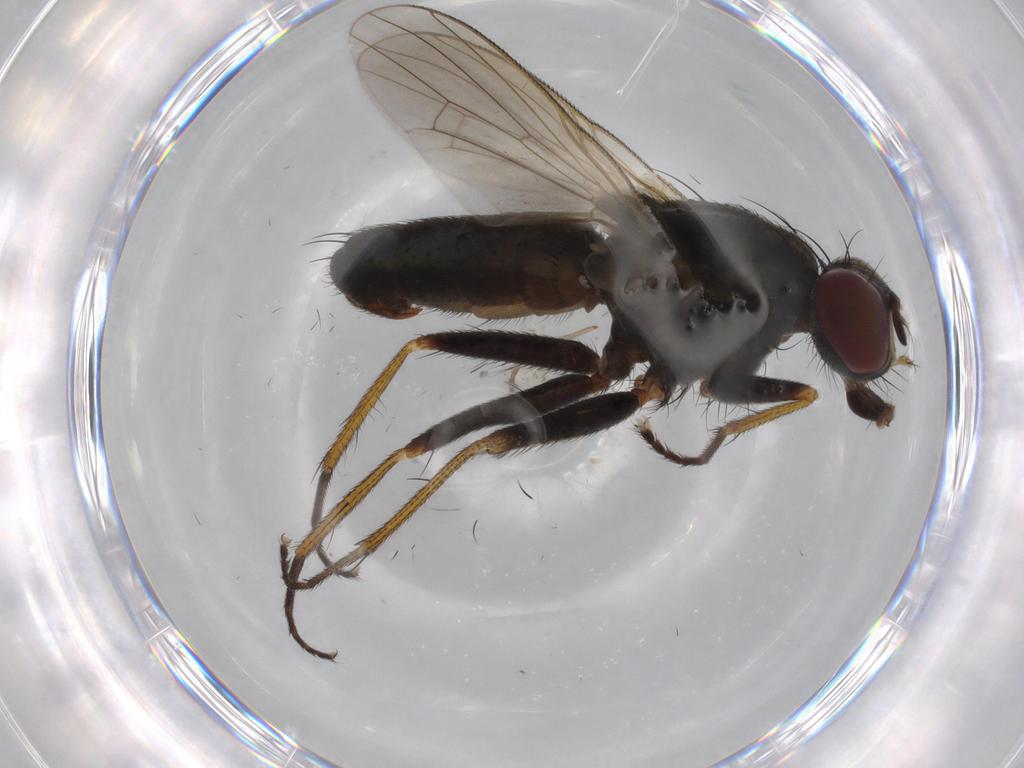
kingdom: Animalia
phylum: Arthropoda
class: Insecta
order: Diptera
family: Muscidae
